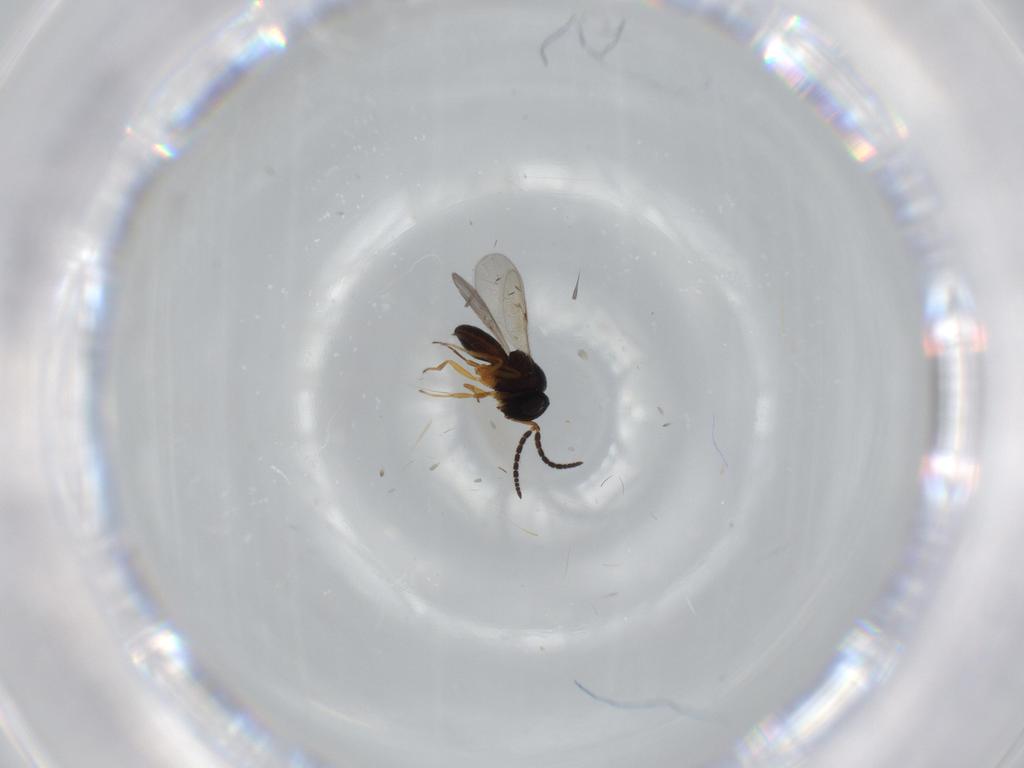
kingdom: Animalia
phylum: Arthropoda
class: Insecta
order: Hymenoptera
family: Scelionidae
